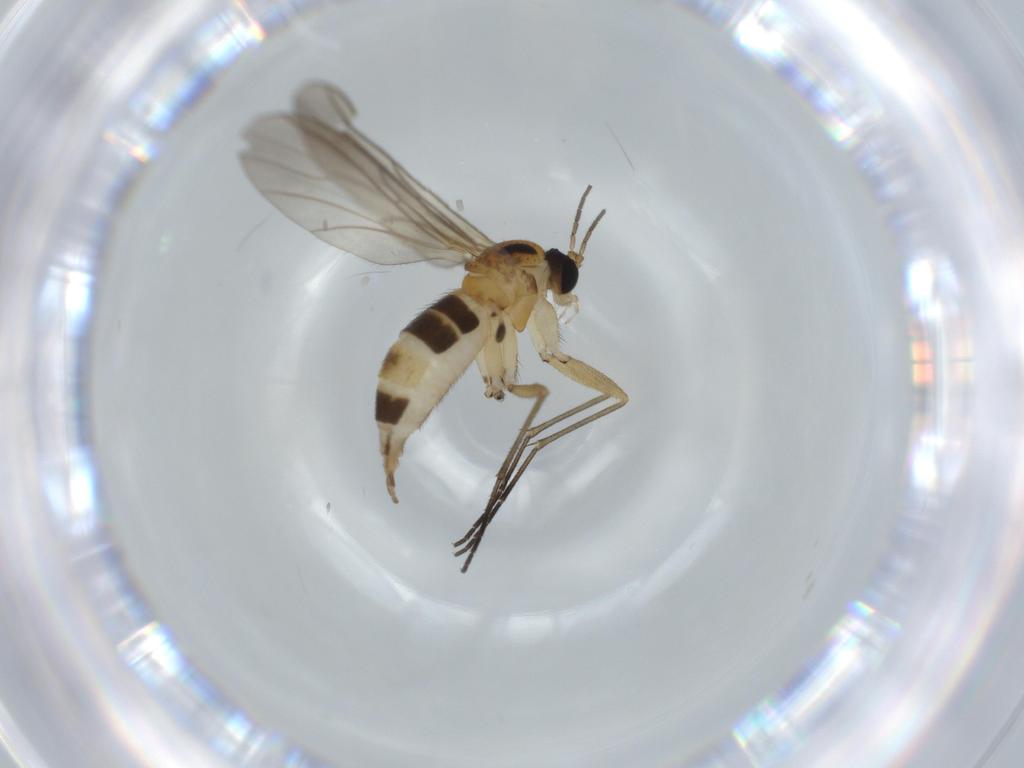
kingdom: Animalia
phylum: Arthropoda
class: Insecta
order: Diptera
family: Sciaridae
